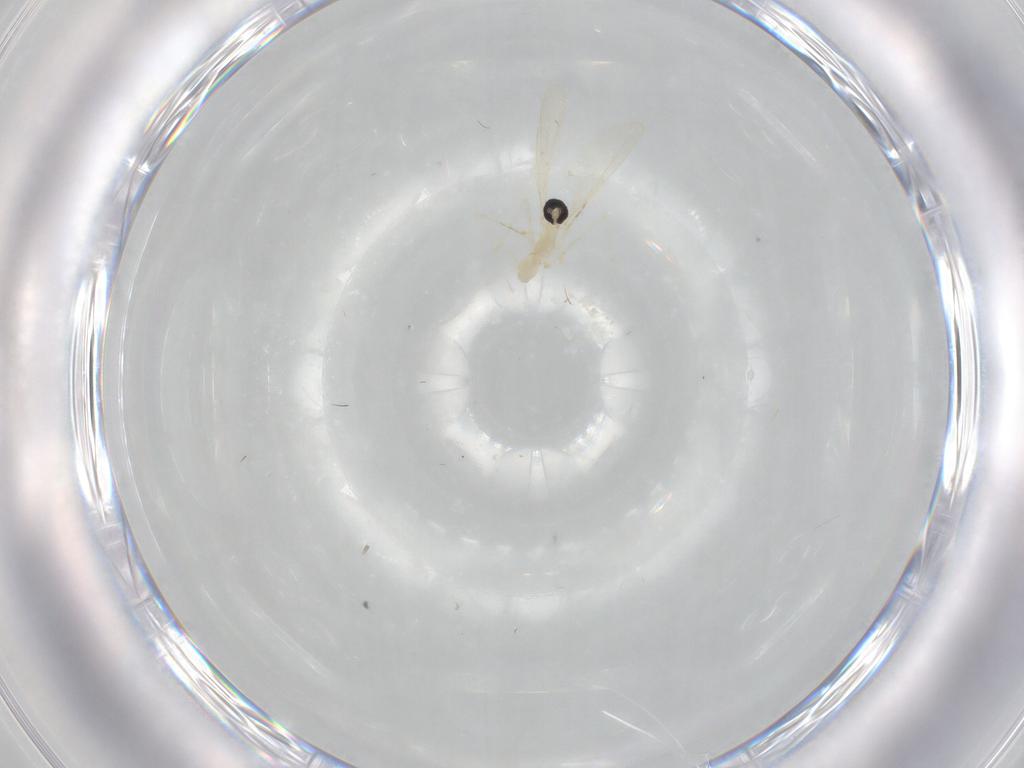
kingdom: Animalia
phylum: Arthropoda
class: Insecta
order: Diptera
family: Cecidomyiidae
